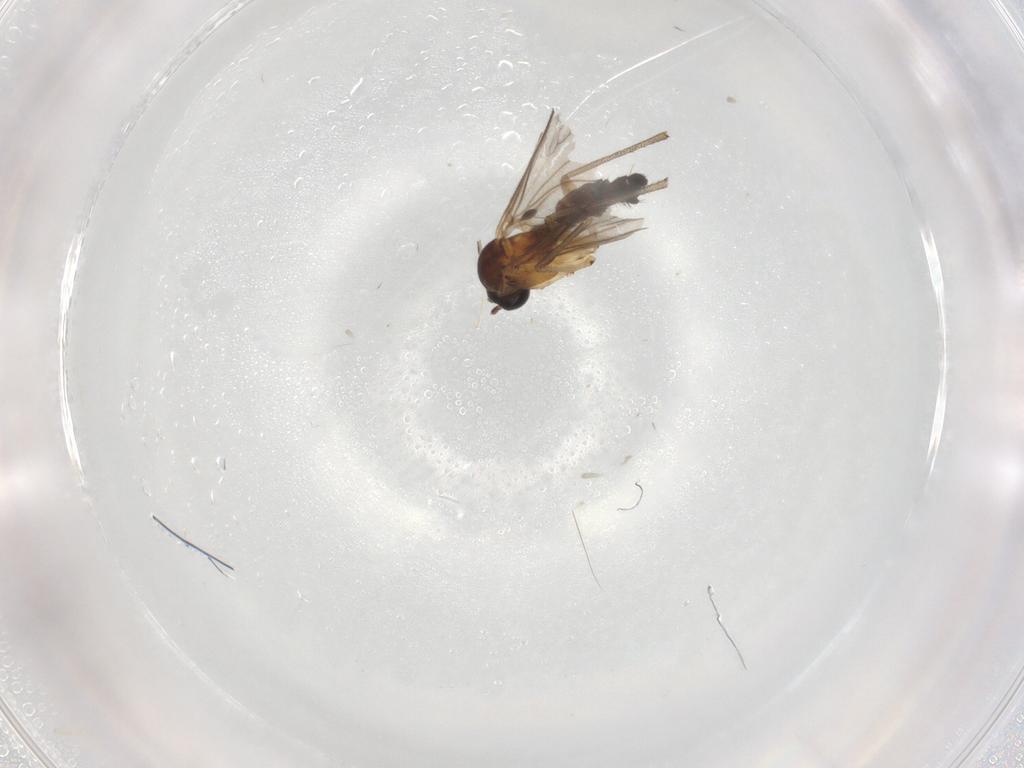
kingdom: Animalia
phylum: Arthropoda
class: Insecta
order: Diptera
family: Sciaridae
